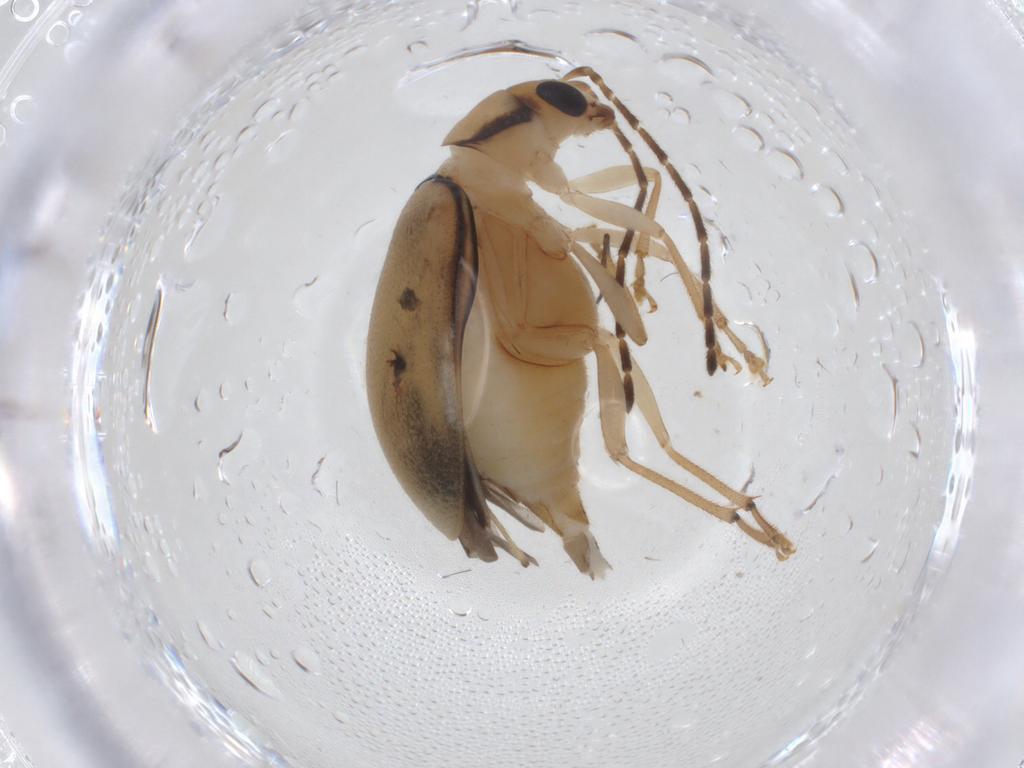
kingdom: Animalia
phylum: Arthropoda
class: Insecta
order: Coleoptera
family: Chrysomelidae
